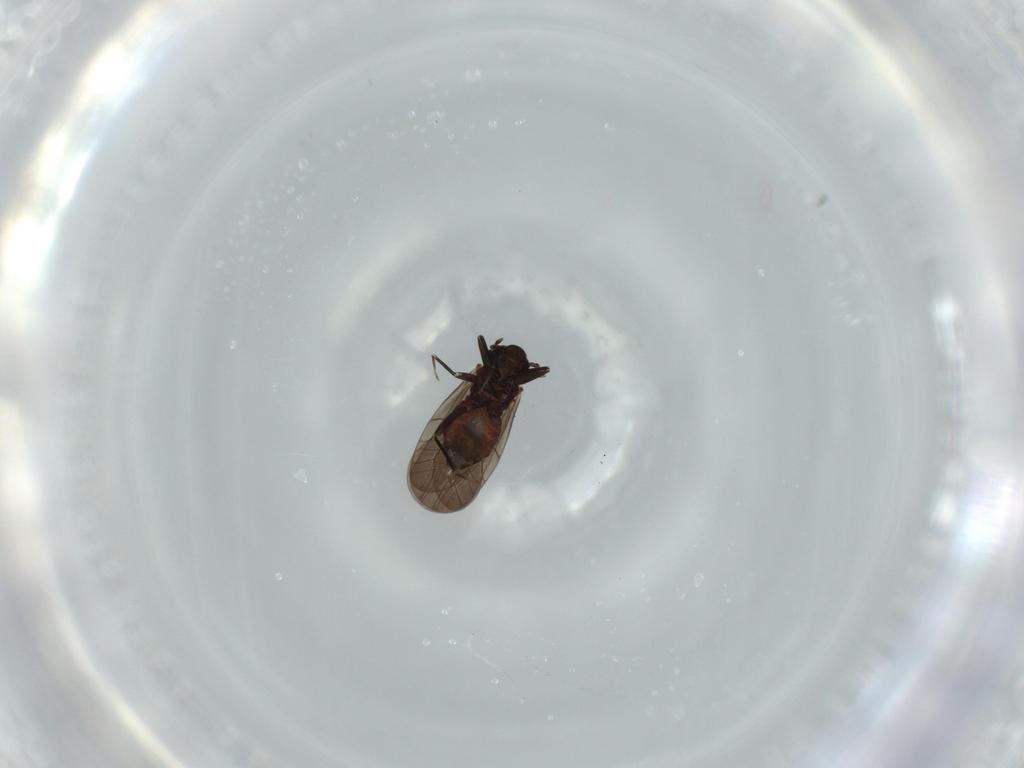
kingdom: Animalia
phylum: Arthropoda
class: Insecta
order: Psocodea
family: Lepidopsocidae
